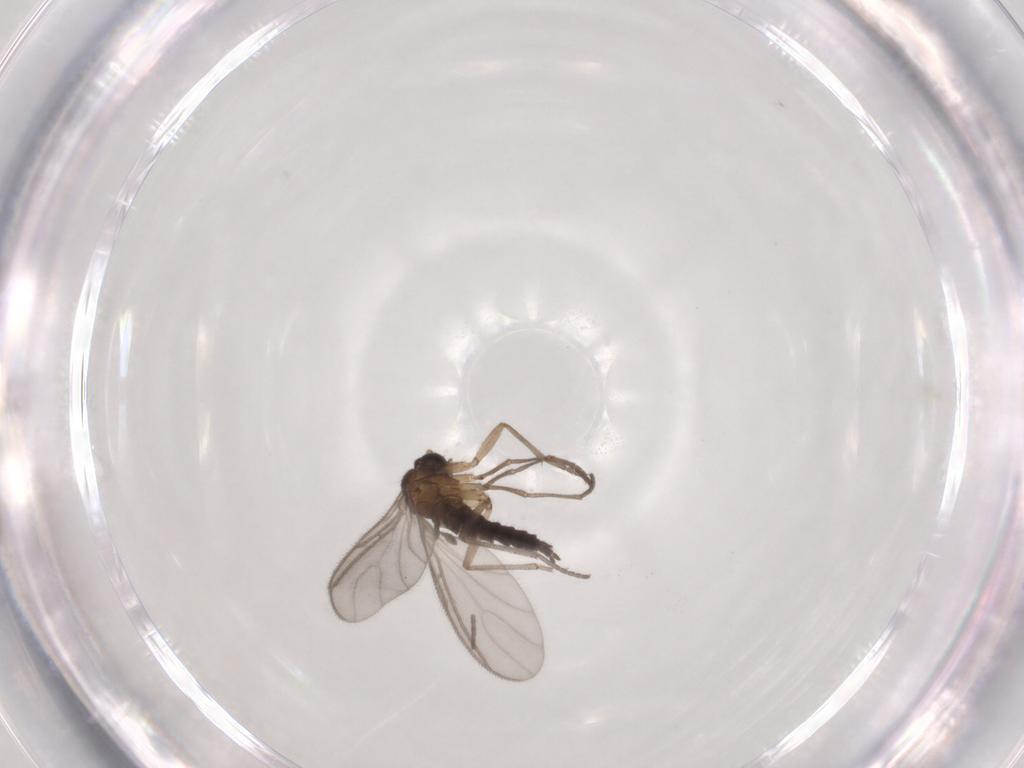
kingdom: Animalia
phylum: Arthropoda
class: Insecta
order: Diptera
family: Sciaridae
